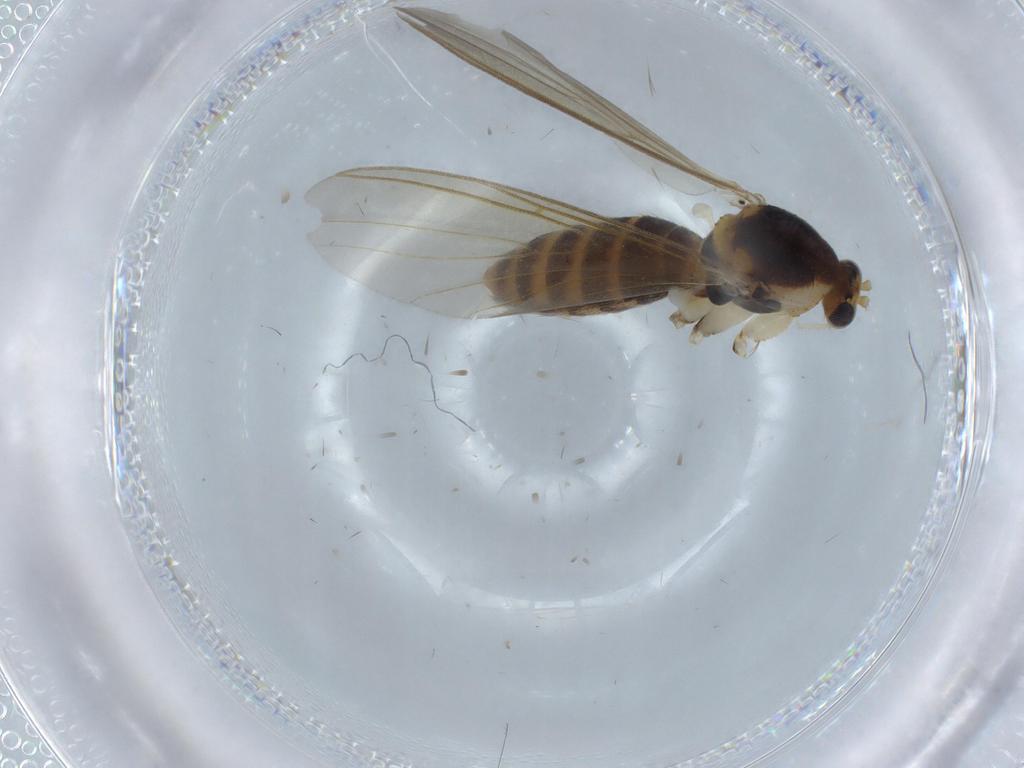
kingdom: Animalia
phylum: Arthropoda
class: Insecta
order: Diptera
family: Mycetophilidae
